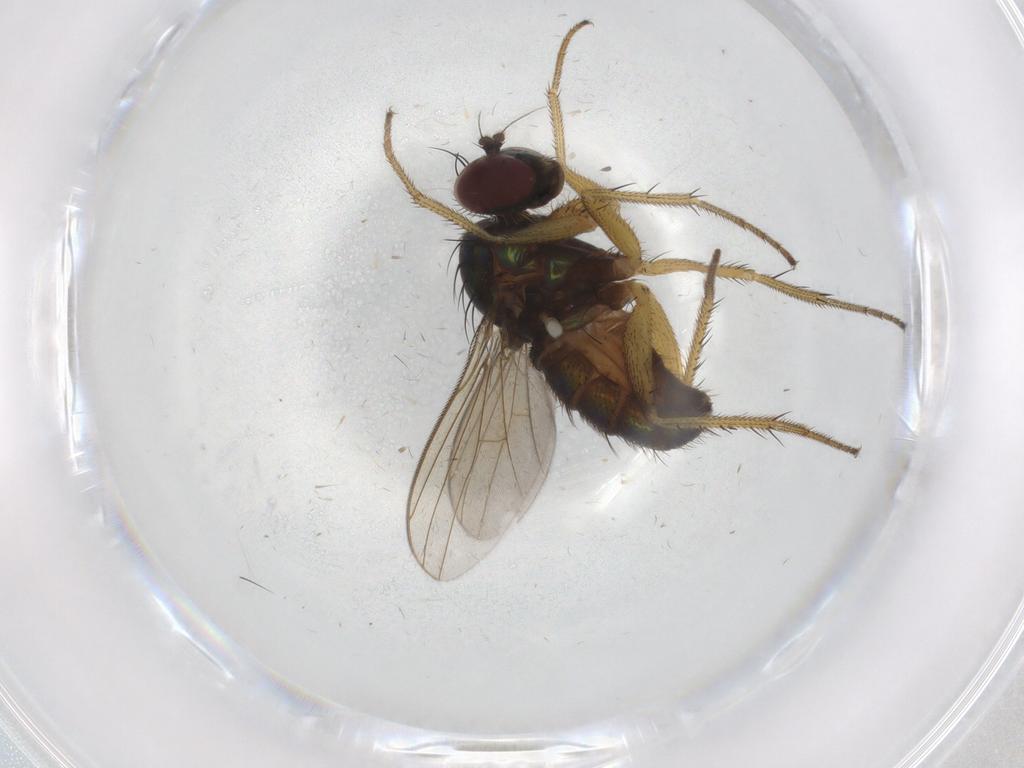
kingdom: Animalia
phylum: Arthropoda
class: Insecta
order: Diptera
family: Dolichopodidae
